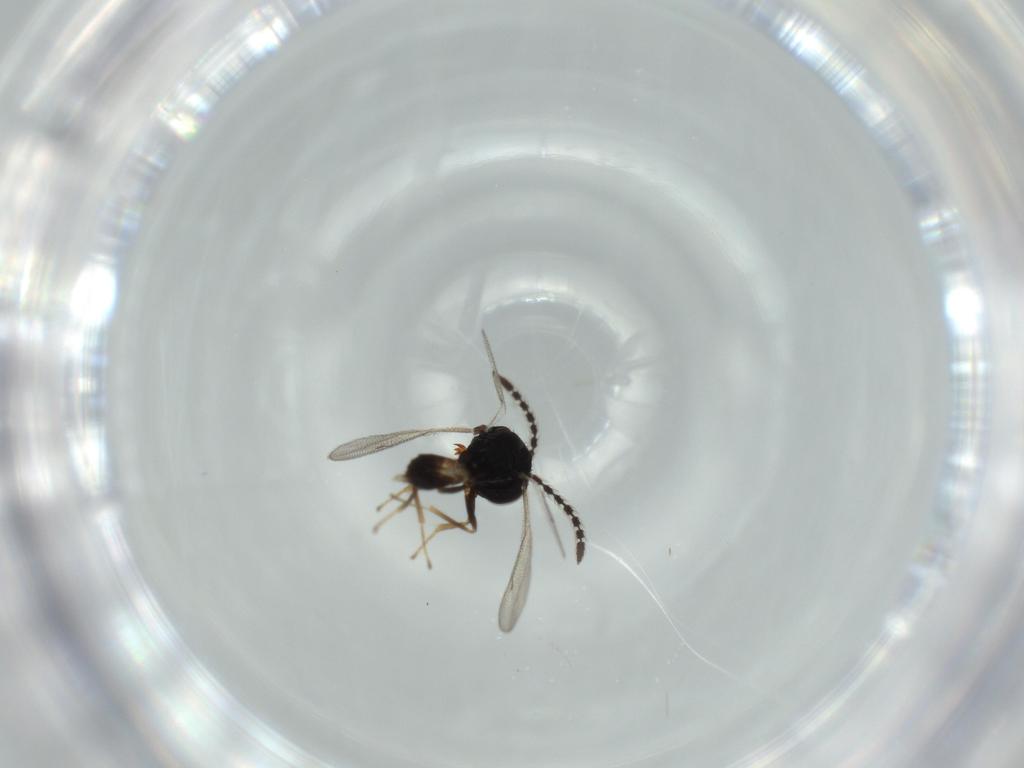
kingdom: Animalia
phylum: Arthropoda
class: Insecta
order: Hymenoptera
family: Pteromalidae
